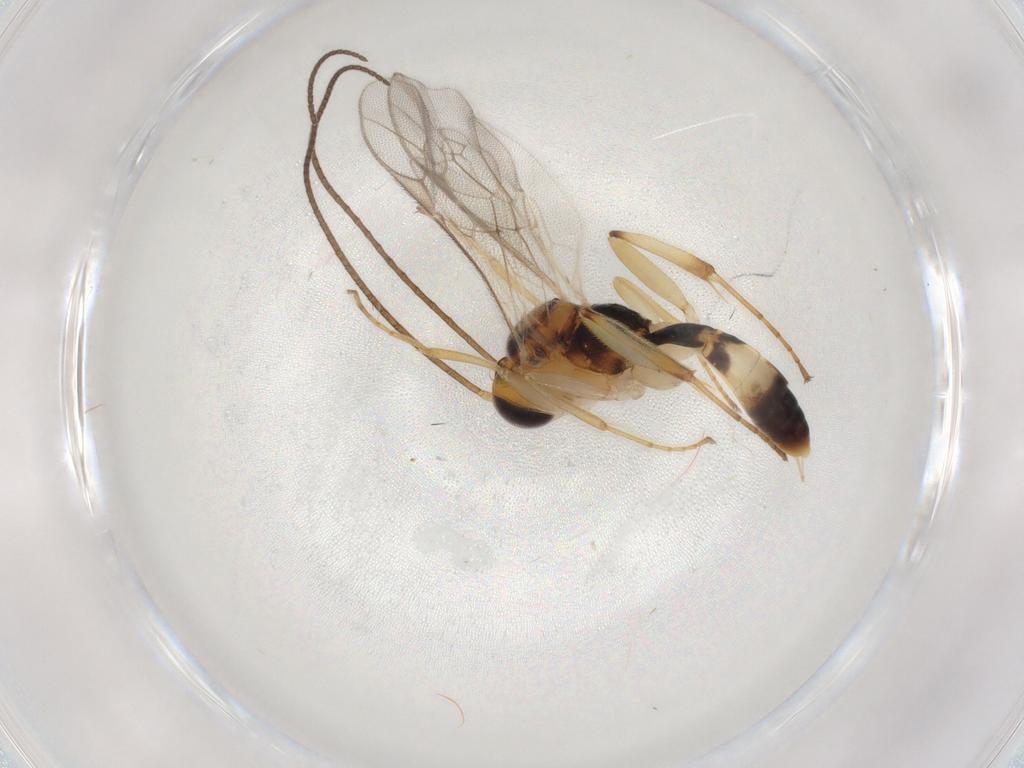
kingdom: Animalia
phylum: Arthropoda
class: Insecta
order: Hymenoptera
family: Ichneumonidae
